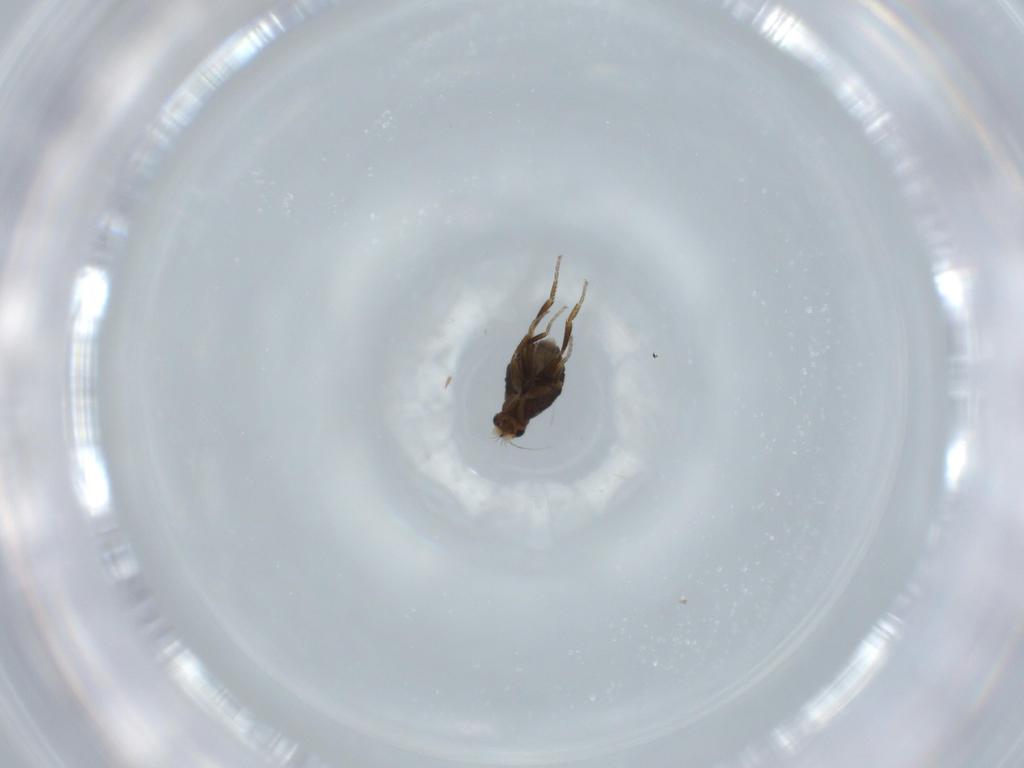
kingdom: Animalia
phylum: Arthropoda
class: Insecta
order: Diptera
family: Phoridae
